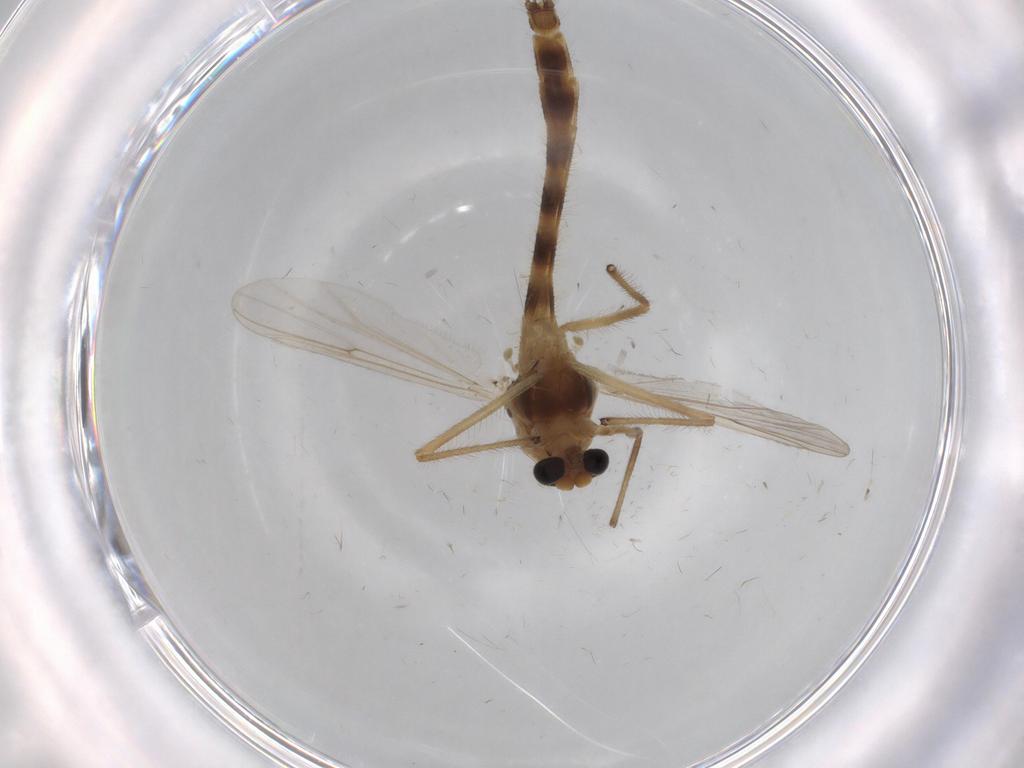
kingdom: Animalia
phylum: Arthropoda
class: Insecta
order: Diptera
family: Chironomidae
